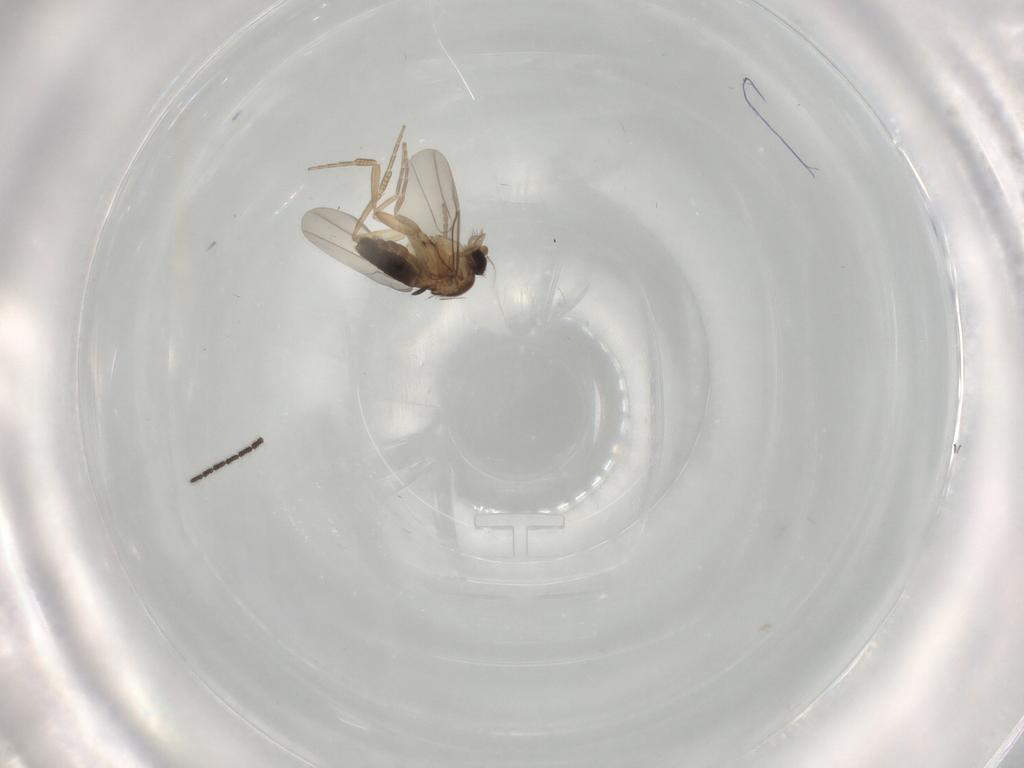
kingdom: Animalia
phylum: Arthropoda
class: Insecta
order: Diptera
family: Phoridae
